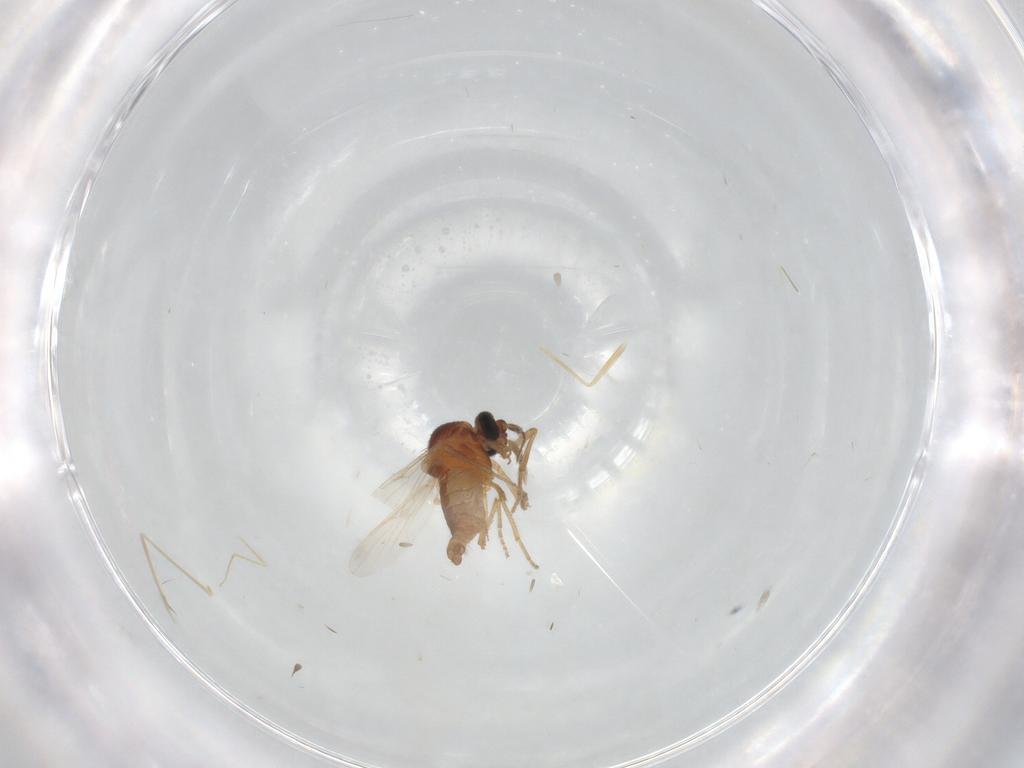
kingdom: Animalia
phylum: Arthropoda
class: Insecta
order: Diptera
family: Ceratopogonidae
